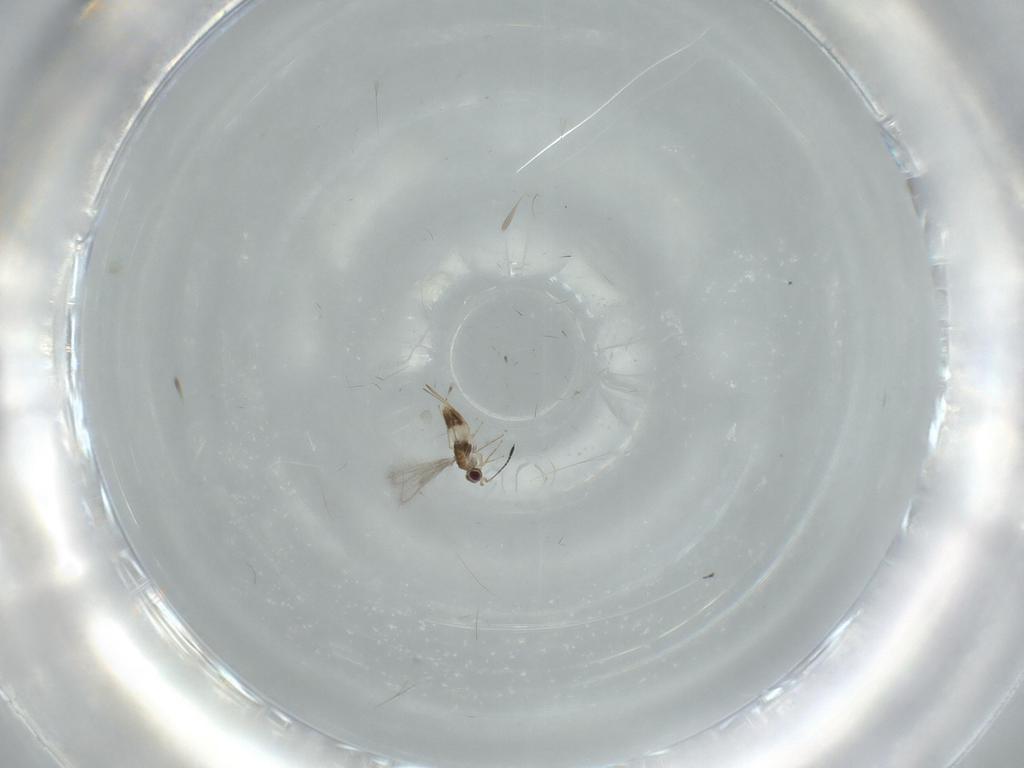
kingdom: Animalia
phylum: Arthropoda
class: Insecta
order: Hymenoptera
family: Mymaridae
